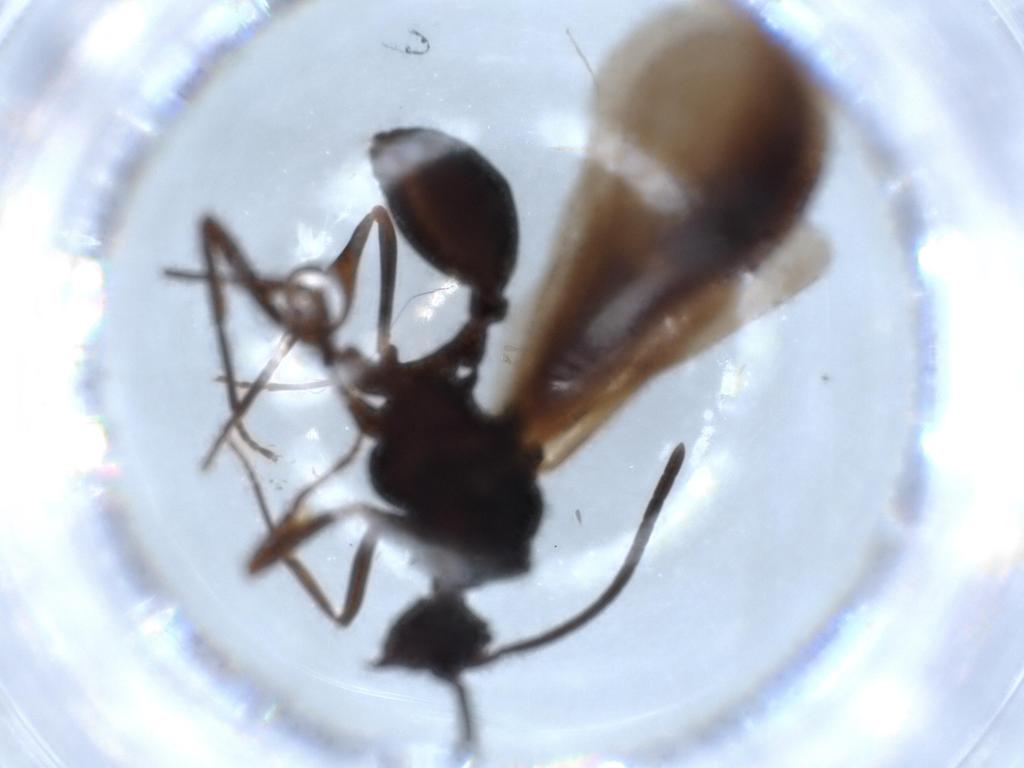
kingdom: Animalia
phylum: Arthropoda
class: Insecta
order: Hymenoptera
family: Formicidae
